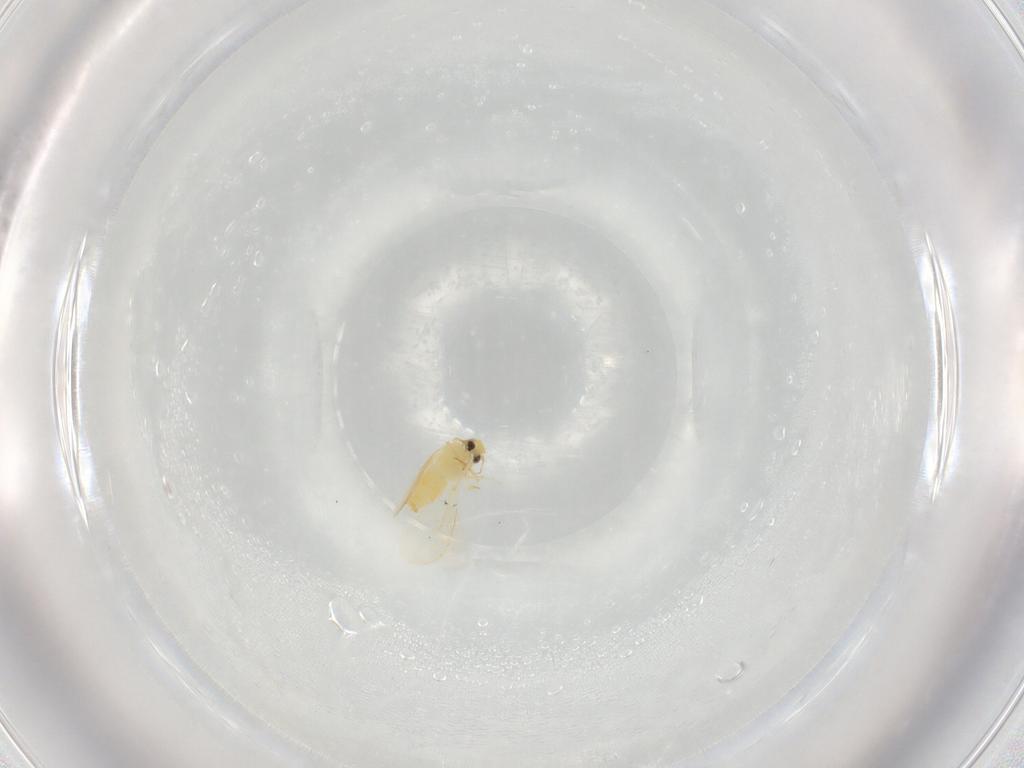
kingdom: Animalia
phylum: Arthropoda
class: Insecta
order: Hemiptera
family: Aleyrodidae
